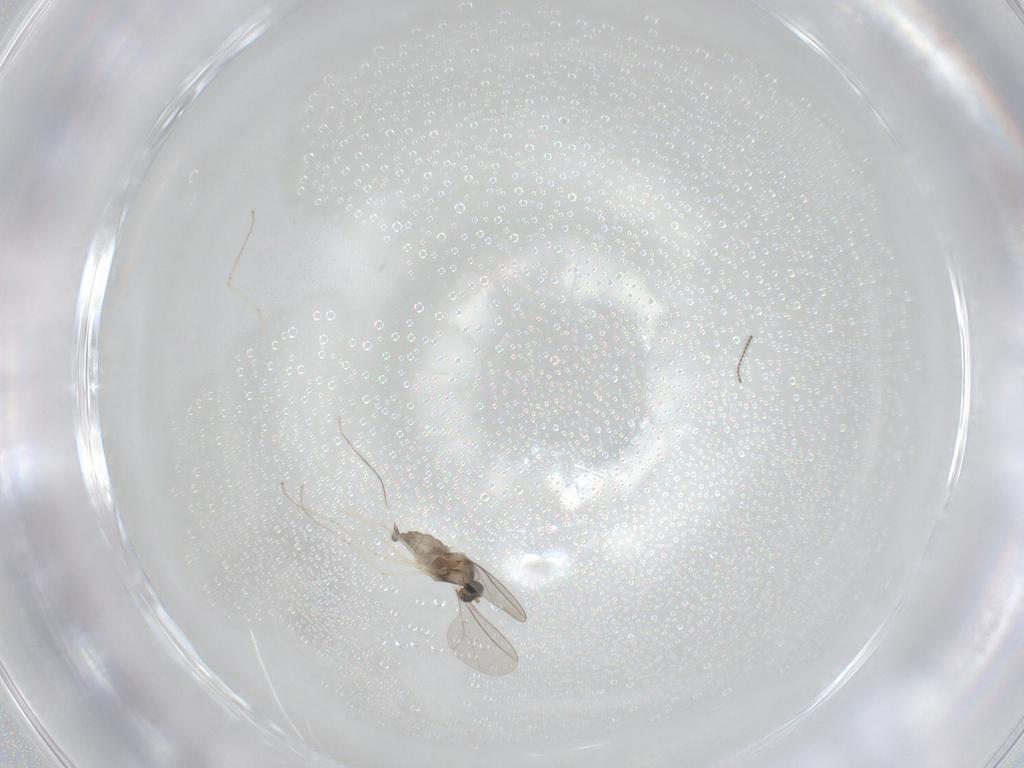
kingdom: Animalia
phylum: Arthropoda
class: Insecta
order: Diptera
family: Cecidomyiidae
